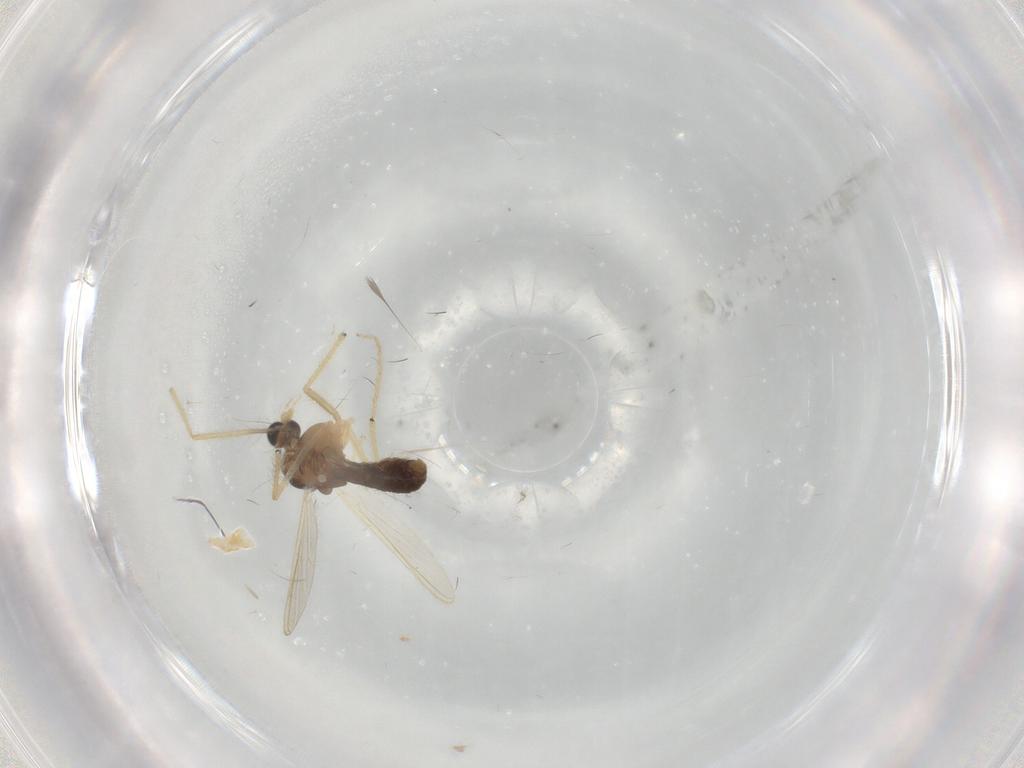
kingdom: Animalia
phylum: Arthropoda
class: Insecta
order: Diptera
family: Chironomidae
